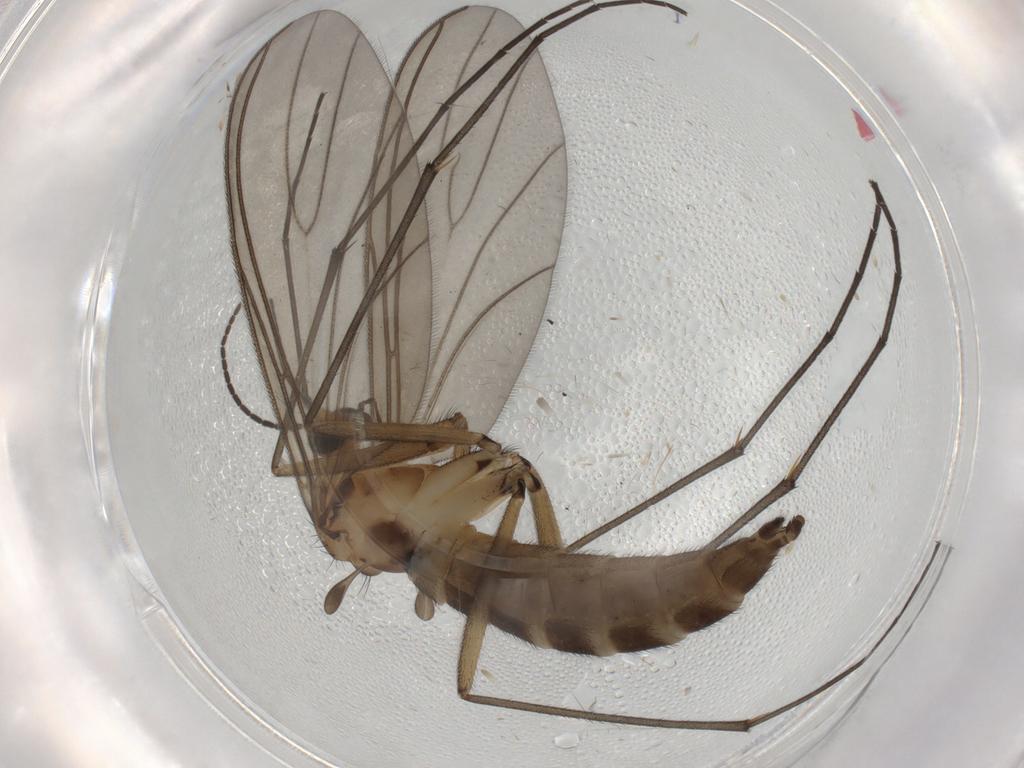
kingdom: Animalia
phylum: Arthropoda
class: Insecta
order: Diptera
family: Sciaridae
